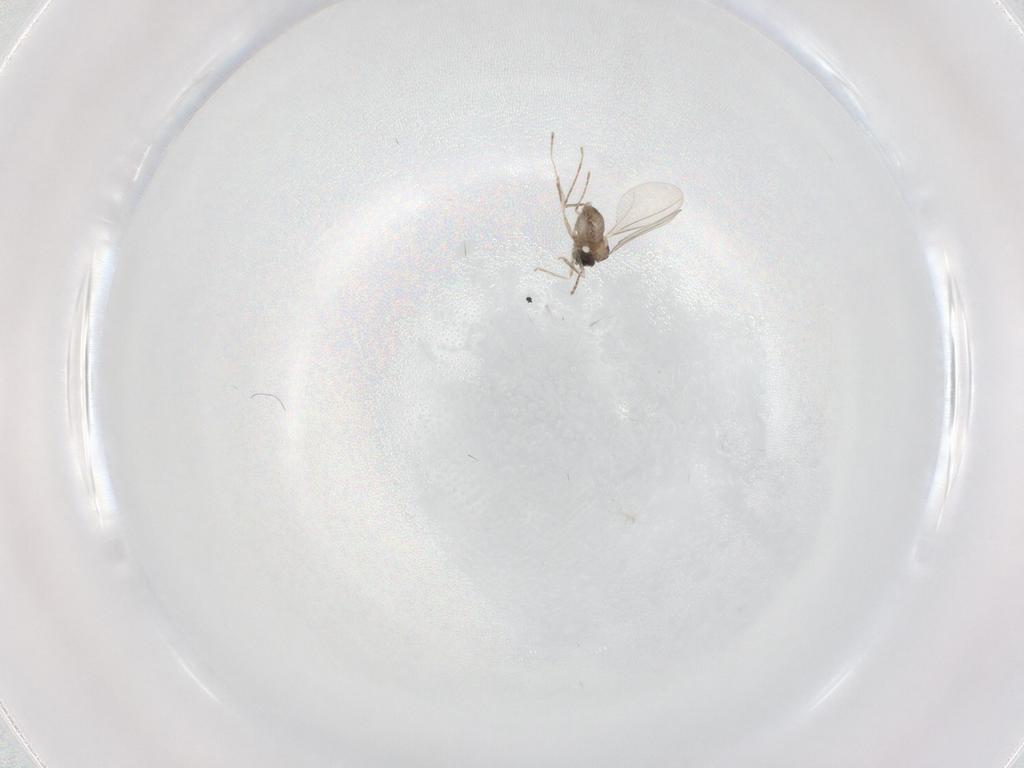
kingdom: Animalia
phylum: Arthropoda
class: Insecta
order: Diptera
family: Cecidomyiidae
